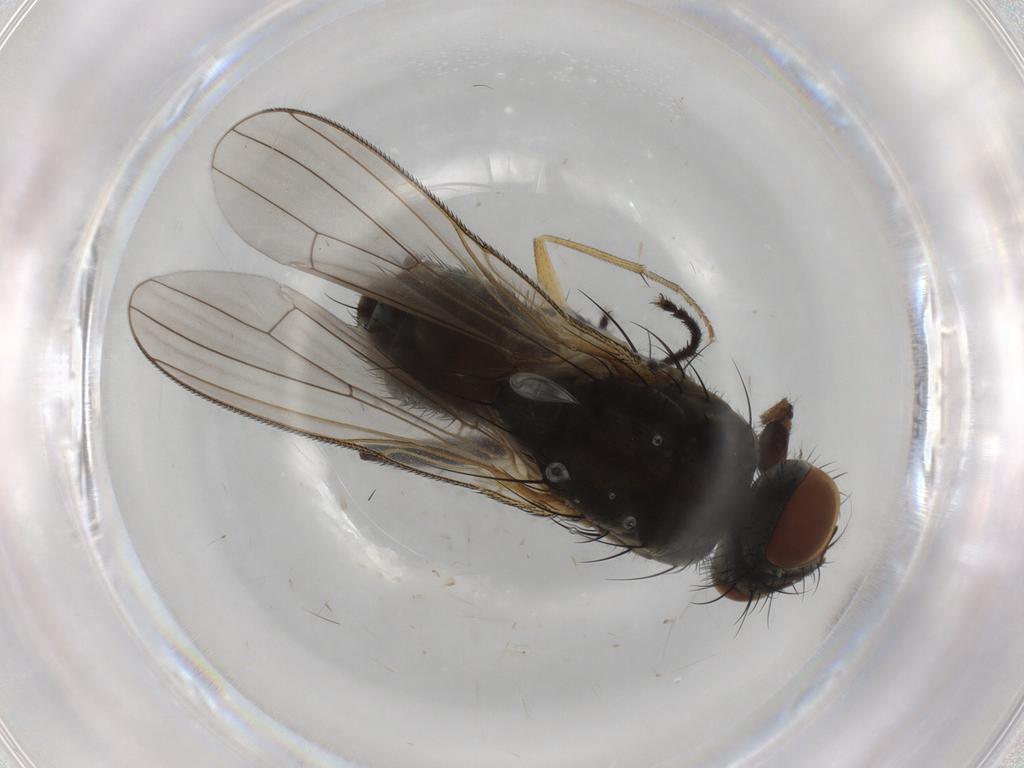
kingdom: Animalia
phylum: Arthropoda
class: Insecta
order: Diptera
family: Muscidae
